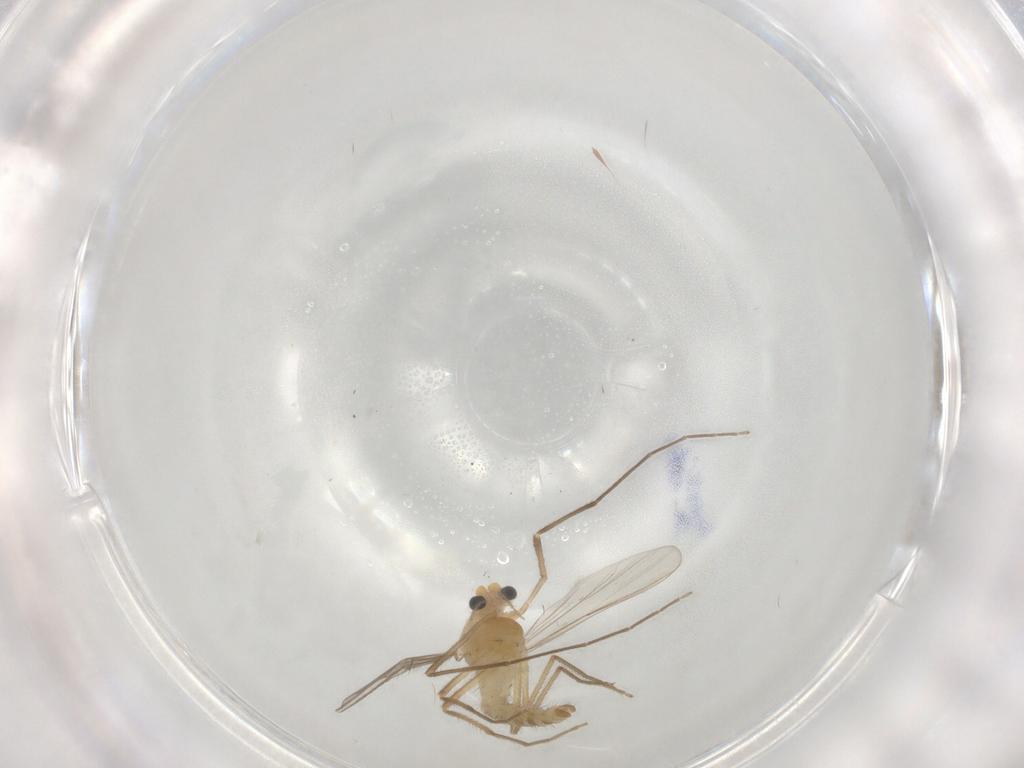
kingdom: Animalia
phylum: Arthropoda
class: Insecta
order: Diptera
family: Chironomidae
